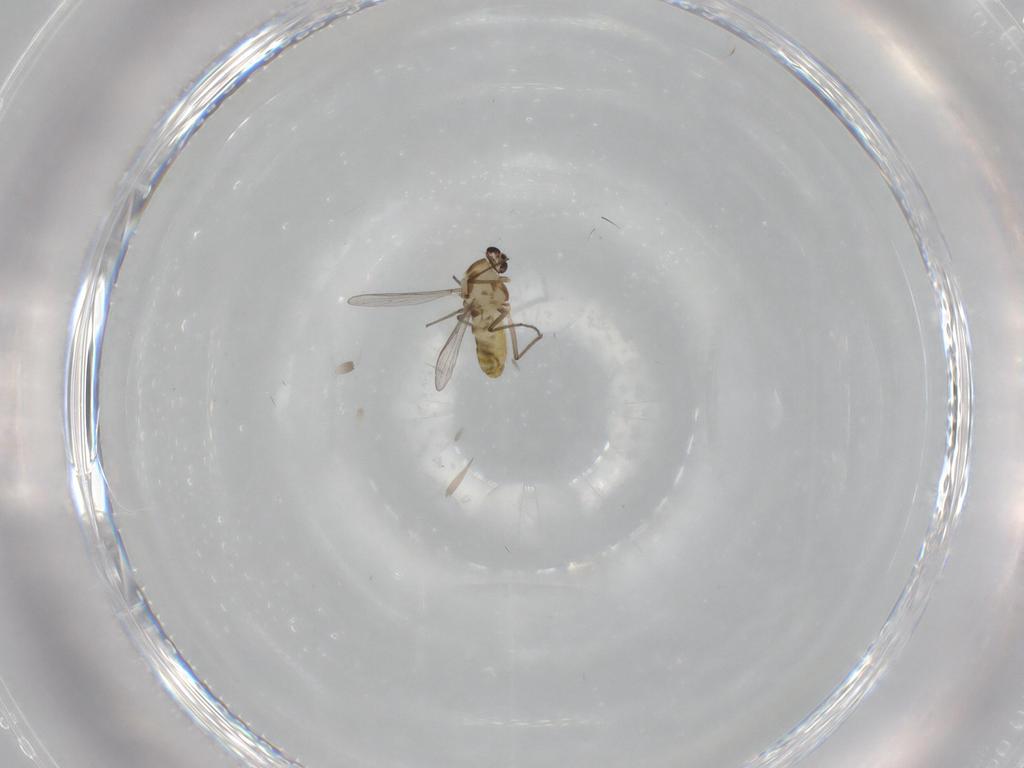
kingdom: Animalia
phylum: Arthropoda
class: Insecta
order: Diptera
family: Chironomidae
